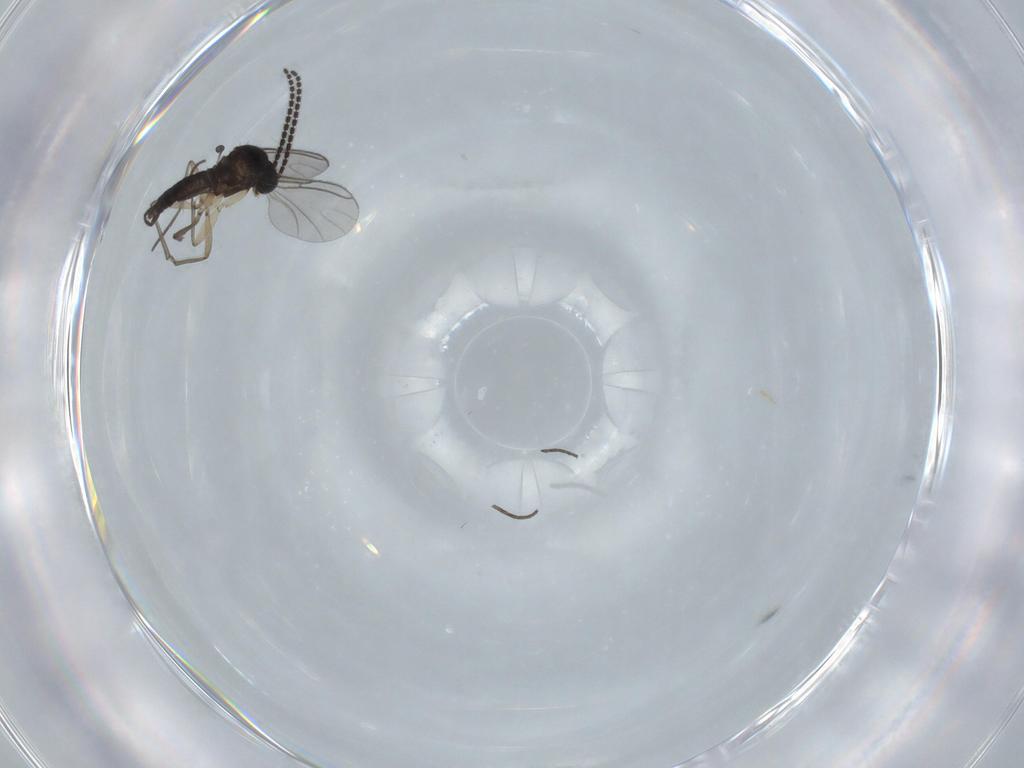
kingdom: Animalia
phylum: Arthropoda
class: Insecta
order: Diptera
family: Sciaridae
